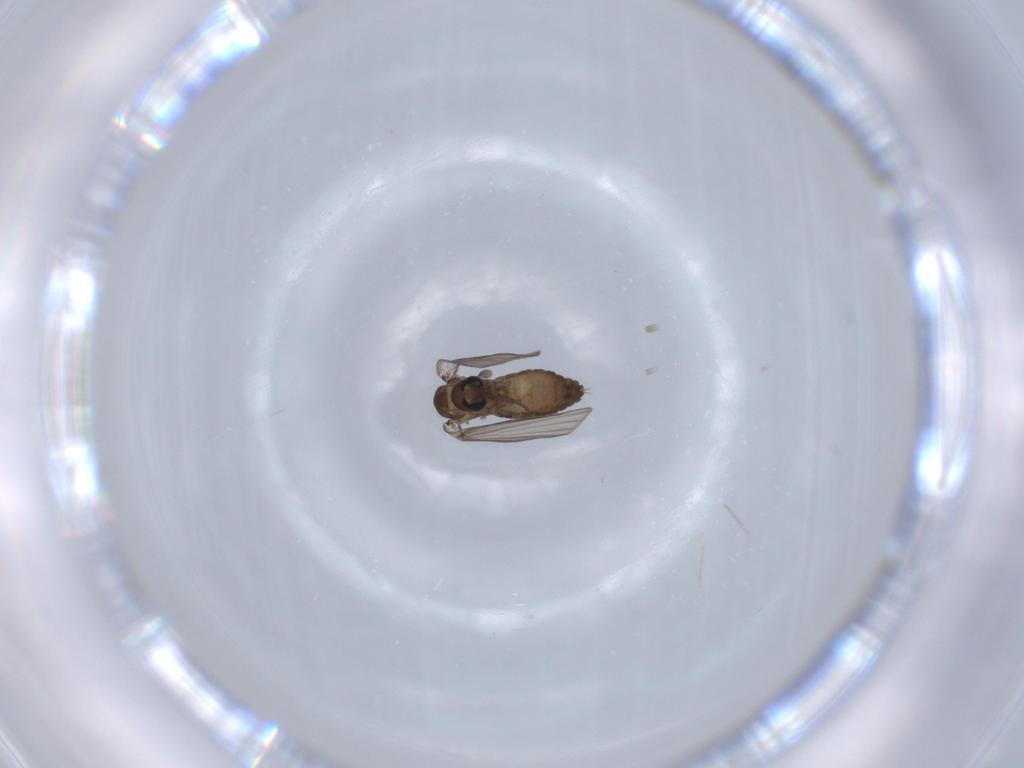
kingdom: Animalia
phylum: Arthropoda
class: Insecta
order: Diptera
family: Psychodidae
